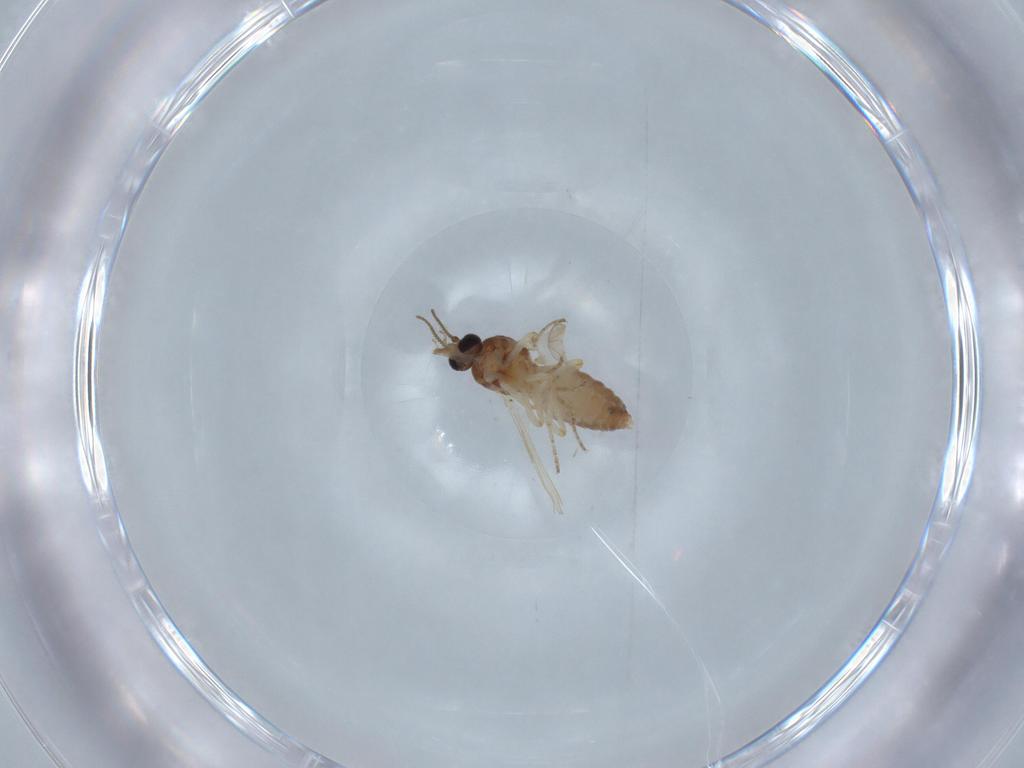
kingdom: Animalia
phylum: Arthropoda
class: Insecta
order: Diptera
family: Ceratopogonidae
